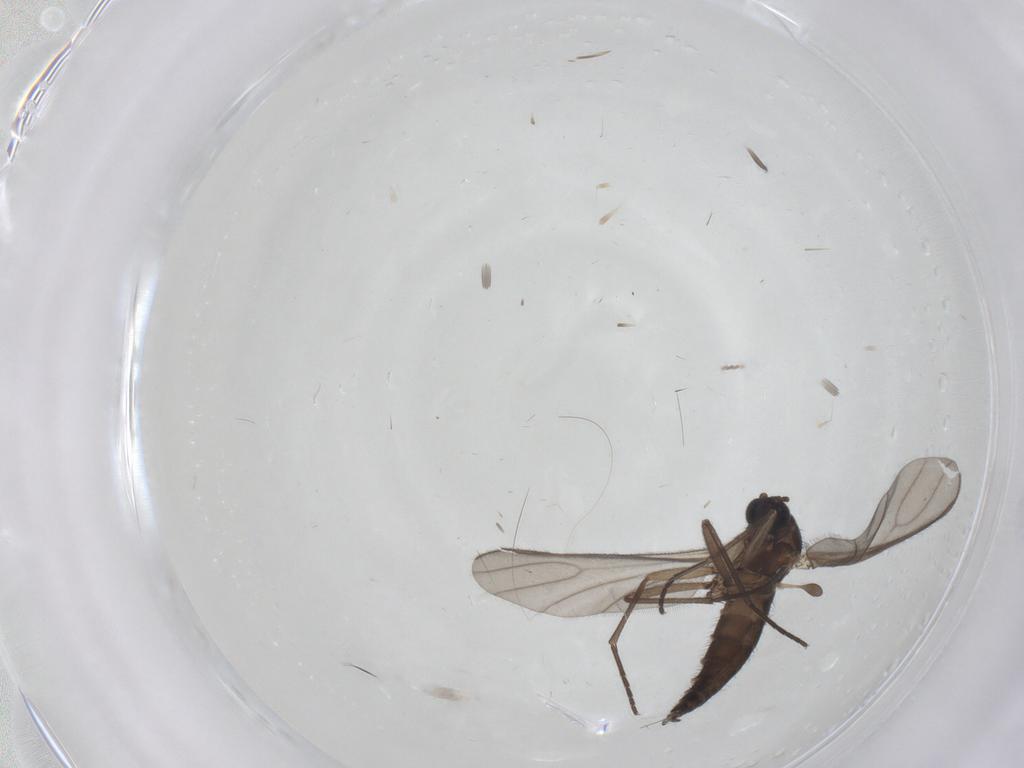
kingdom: Animalia
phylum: Arthropoda
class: Insecta
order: Diptera
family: Sciaridae
